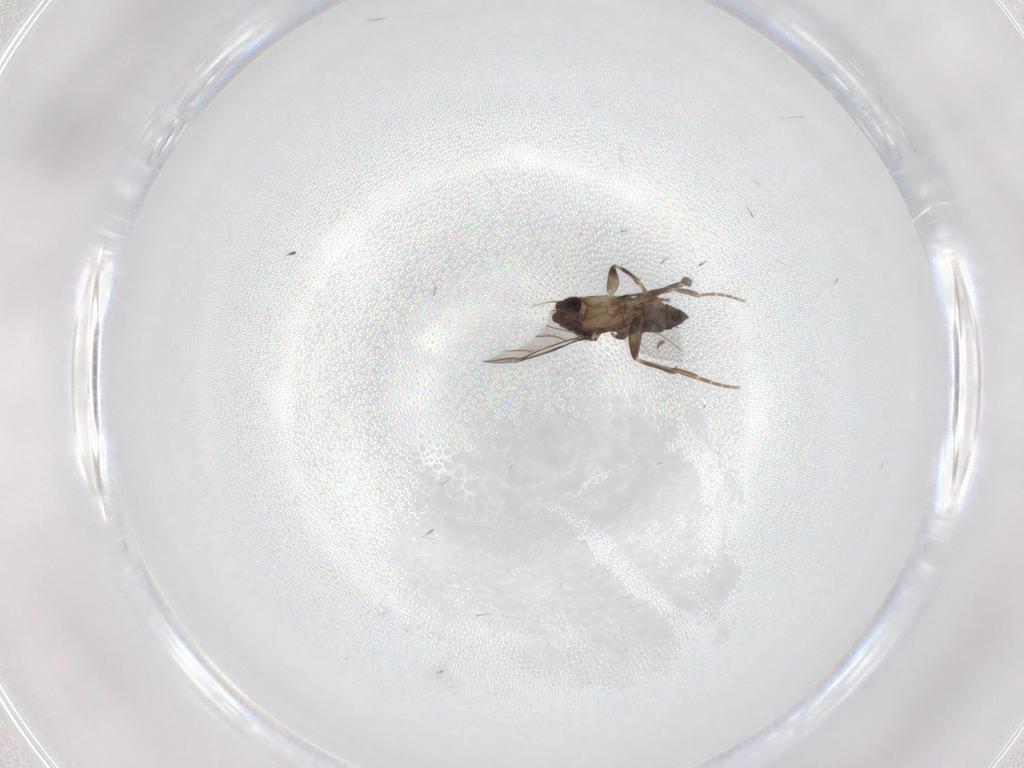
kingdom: Animalia
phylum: Arthropoda
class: Insecta
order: Diptera
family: Phoridae
